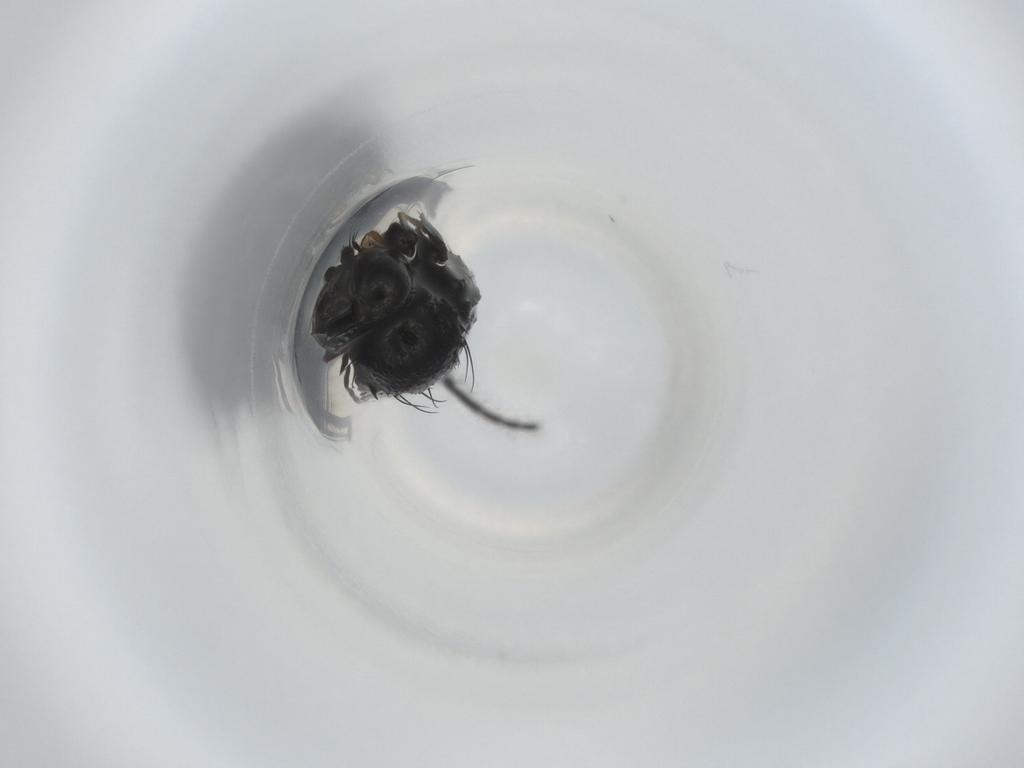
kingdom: Animalia
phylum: Arthropoda
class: Insecta
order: Diptera
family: Phoridae
